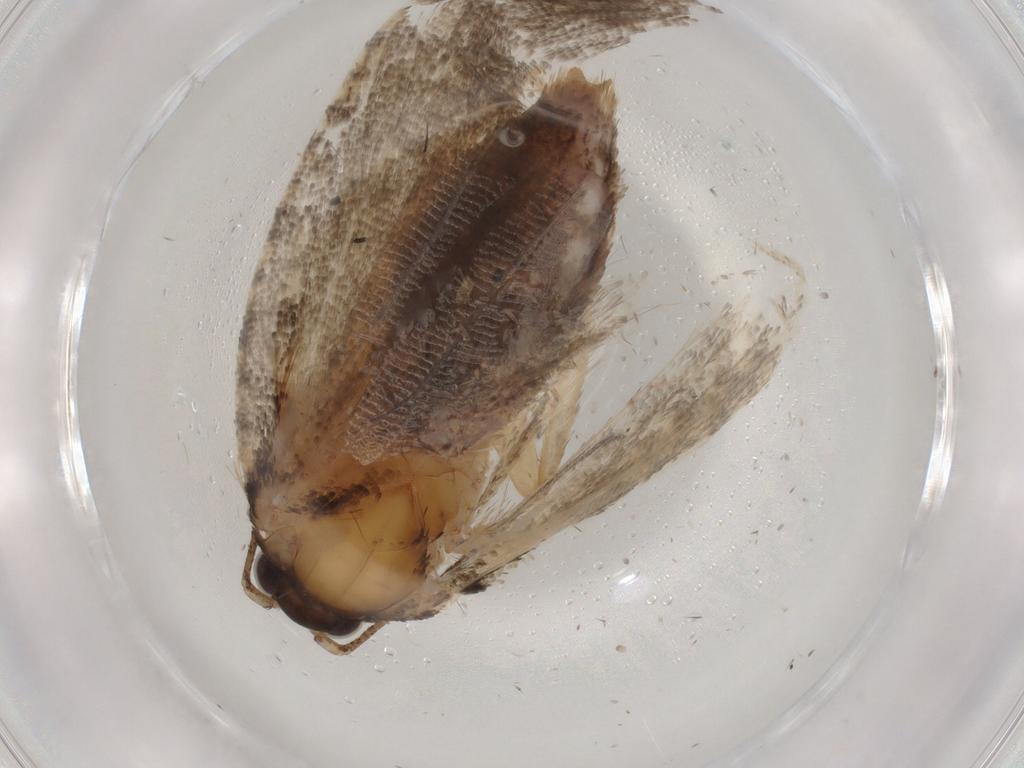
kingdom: Animalia
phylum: Arthropoda
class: Insecta
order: Lepidoptera
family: Tortricidae
